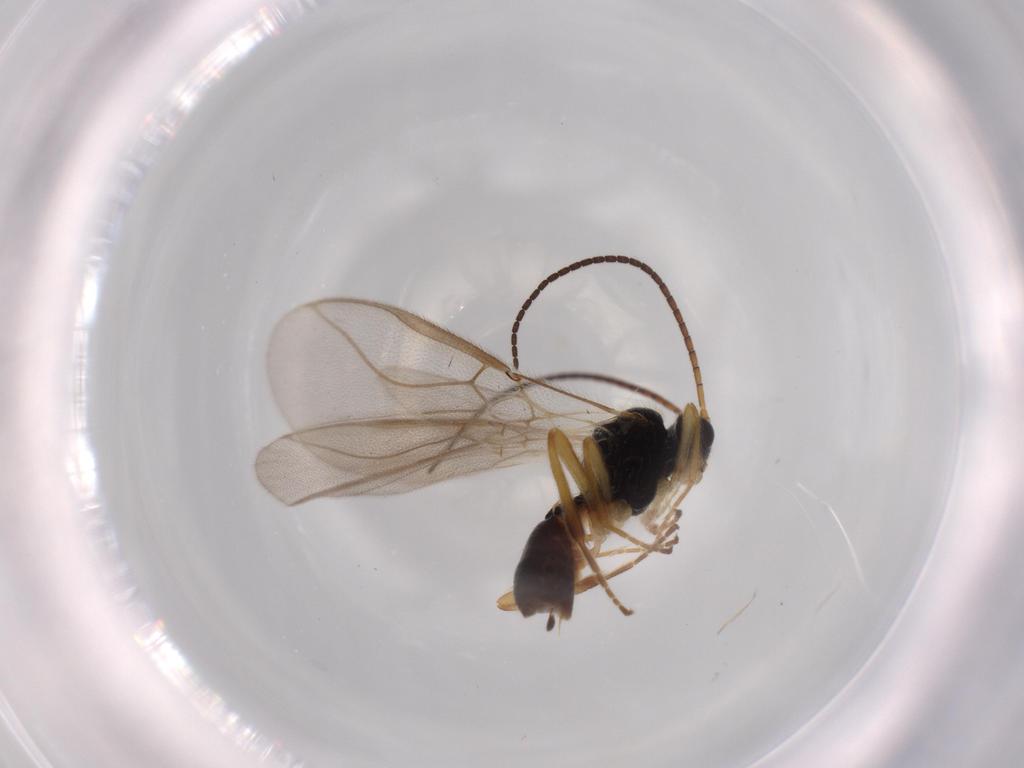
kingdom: Animalia
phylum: Arthropoda
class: Insecta
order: Hymenoptera
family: Braconidae
